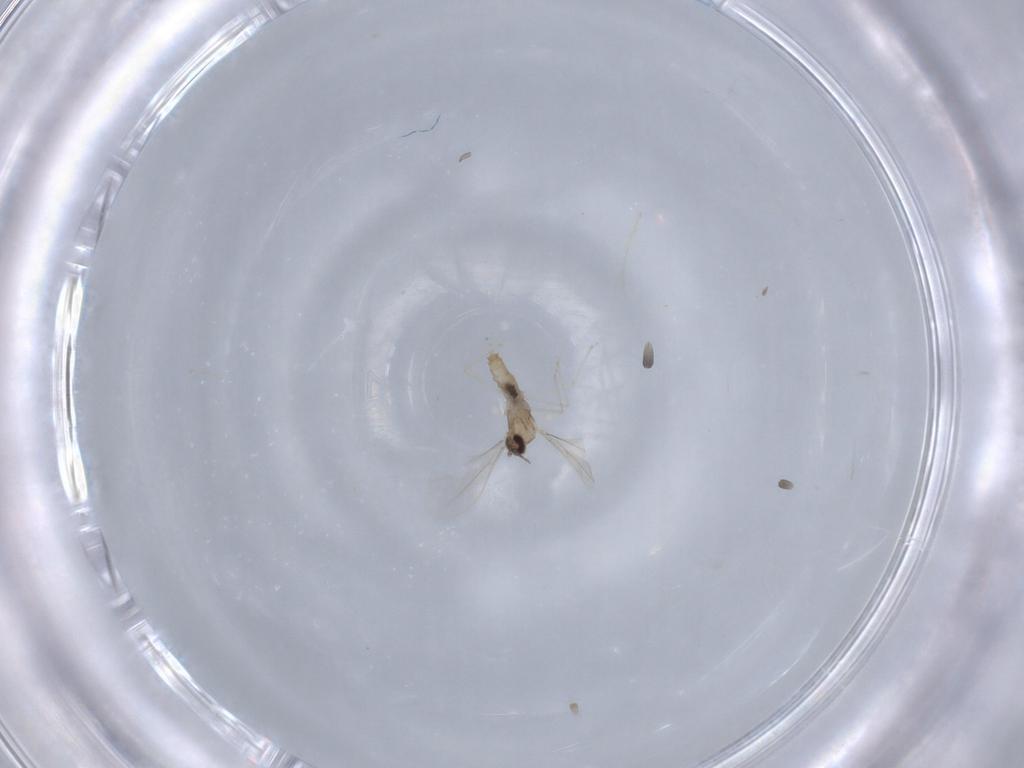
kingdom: Animalia
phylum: Arthropoda
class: Insecta
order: Diptera
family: Cecidomyiidae
